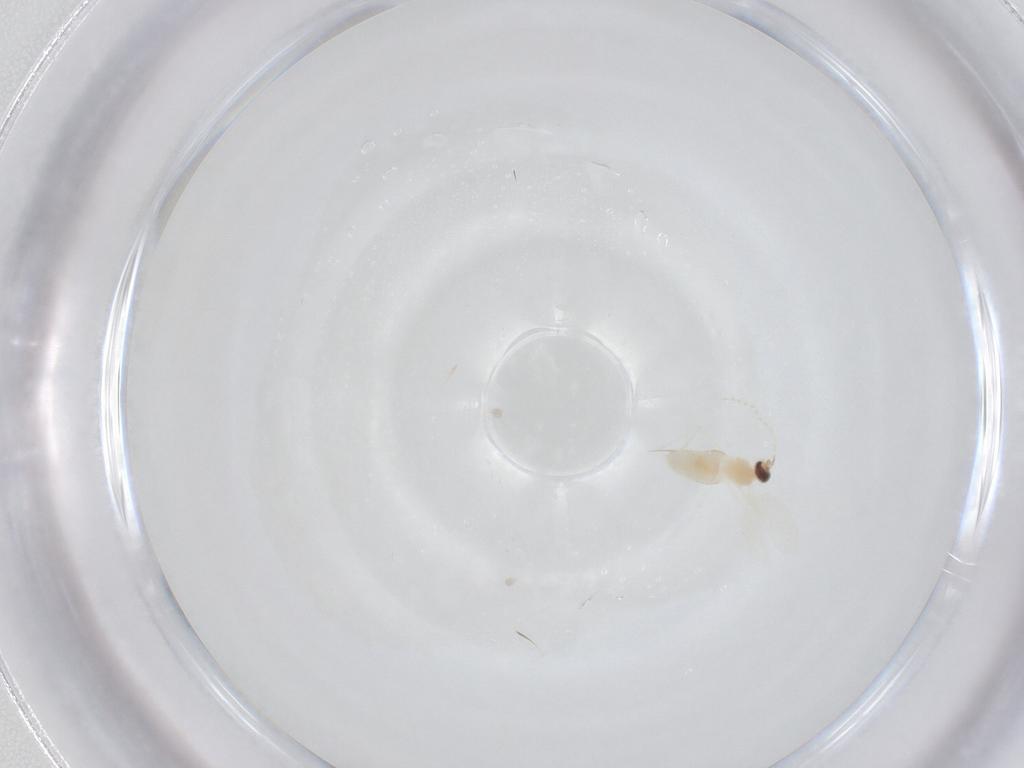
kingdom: Animalia
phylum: Arthropoda
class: Insecta
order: Diptera
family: Cecidomyiidae
